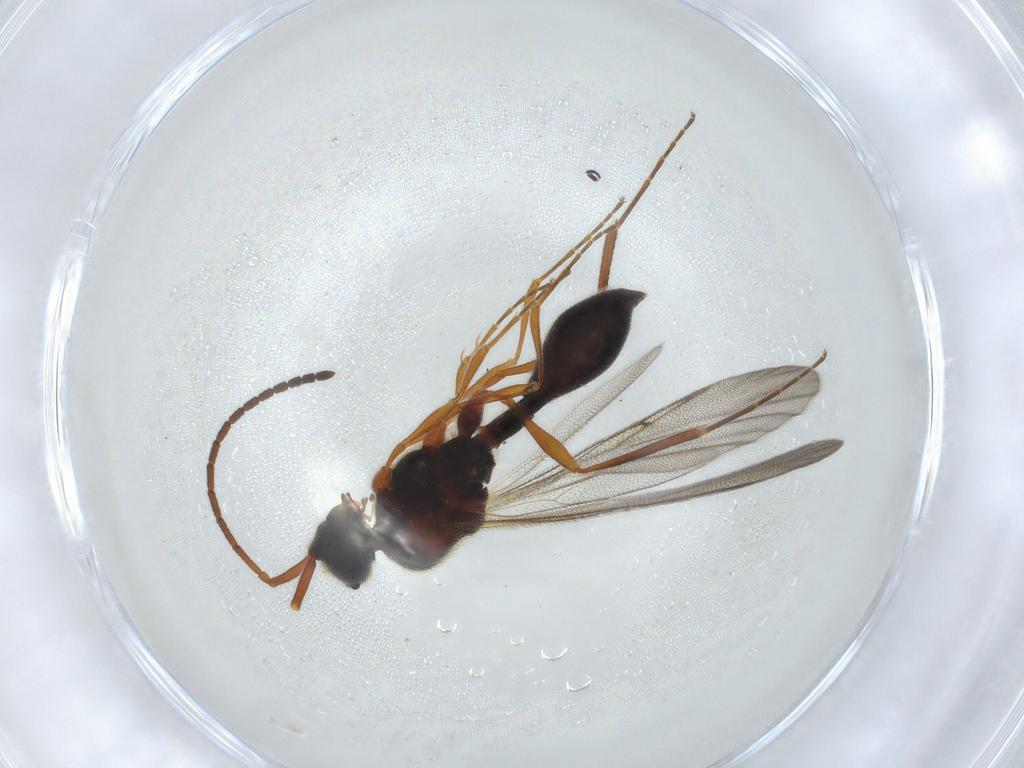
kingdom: Animalia
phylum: Arthropoda
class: Insecta
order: Hymenoptera
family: Diapriidae
